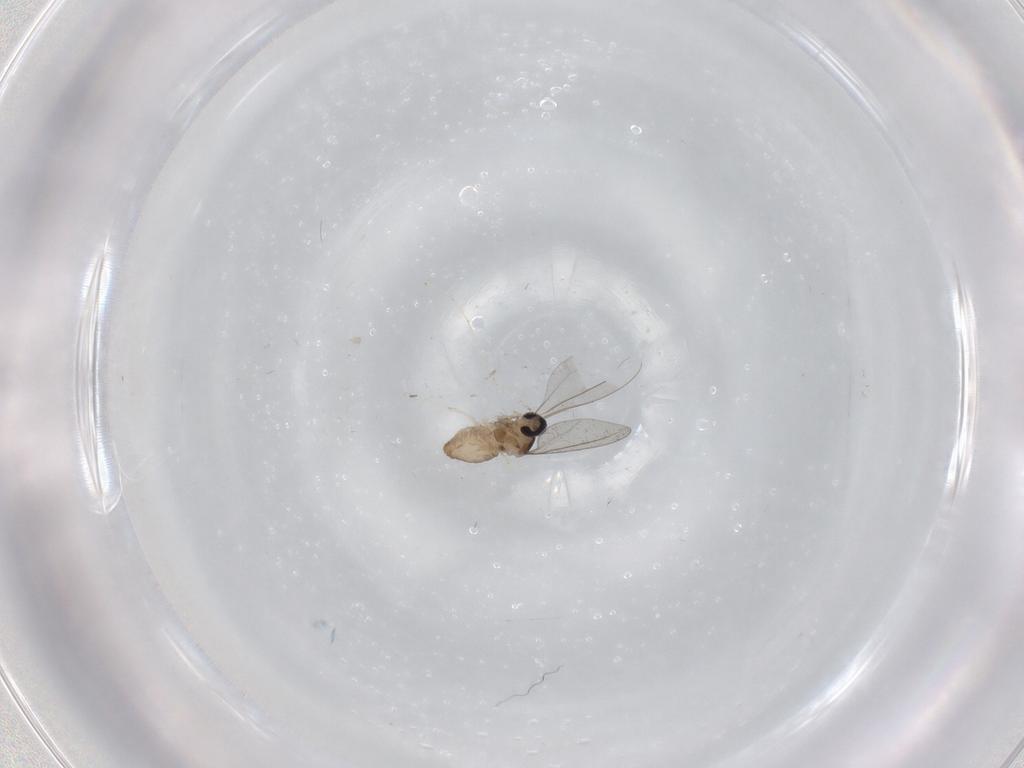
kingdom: Animalia
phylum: Arthropoda
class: Insecta
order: Diptera
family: Cecidomyiidae
